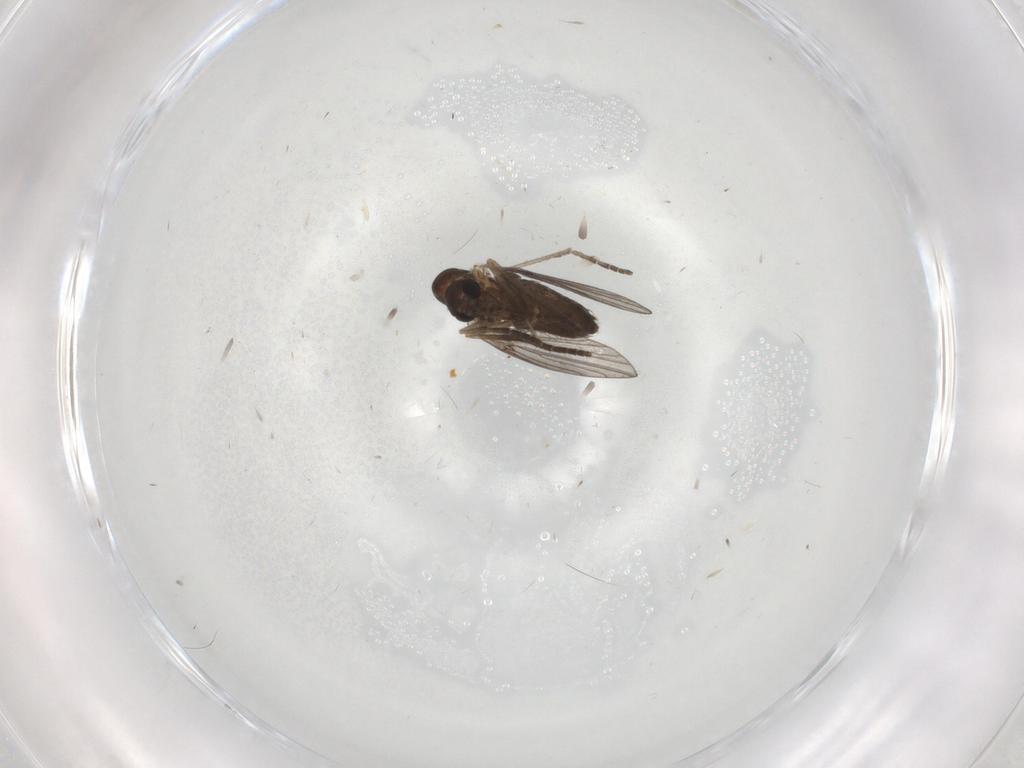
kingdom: Animalia
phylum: Arthropoda
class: Insecta
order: Diptera
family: Cecidomyiidae
